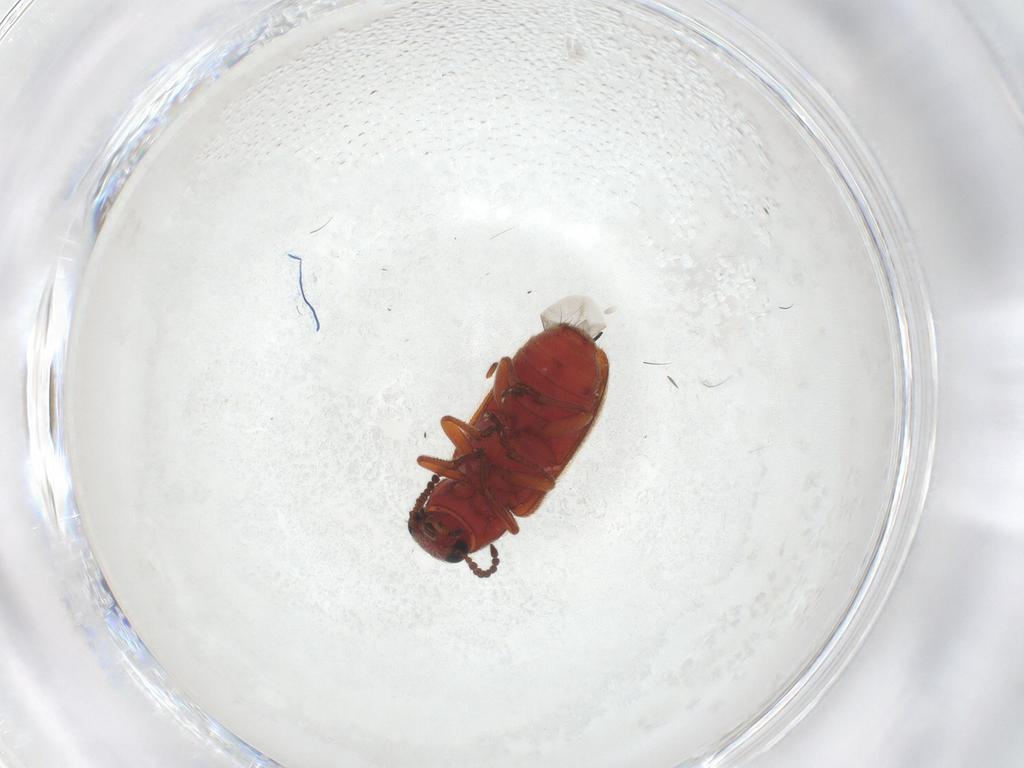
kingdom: Animalia
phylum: Arthropoda
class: Insecta
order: Coleoptera
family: Melyridae
